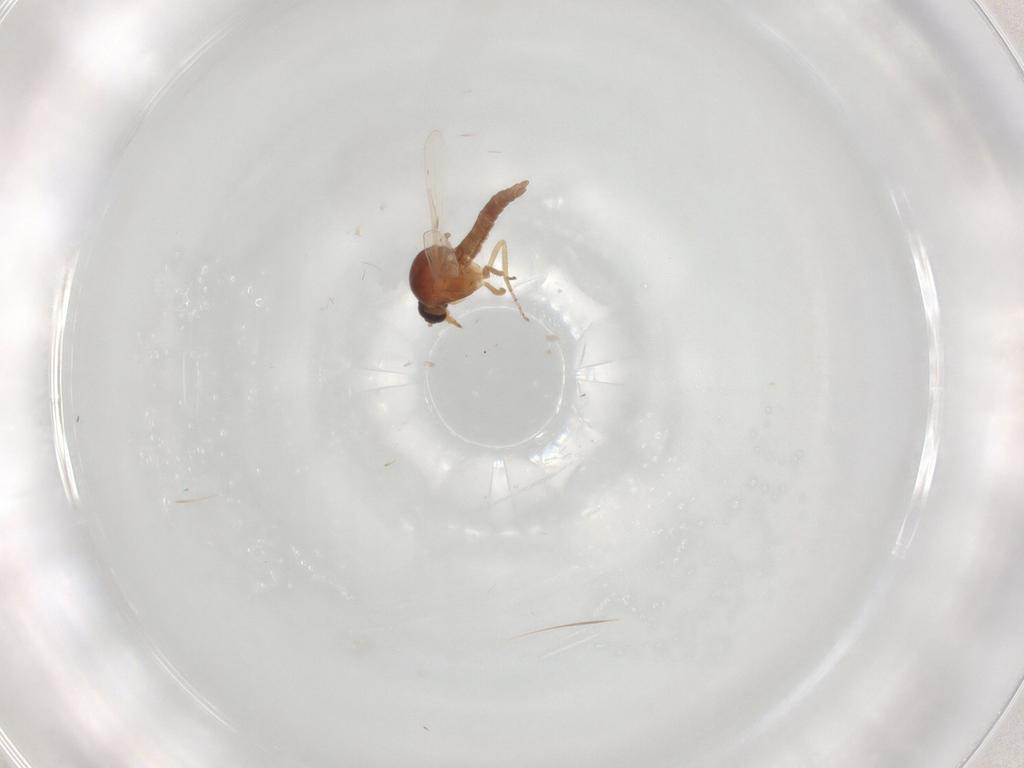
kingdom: Animalia
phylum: Arthropoda
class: Insecta
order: Diptera
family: Ceratopogonidae
